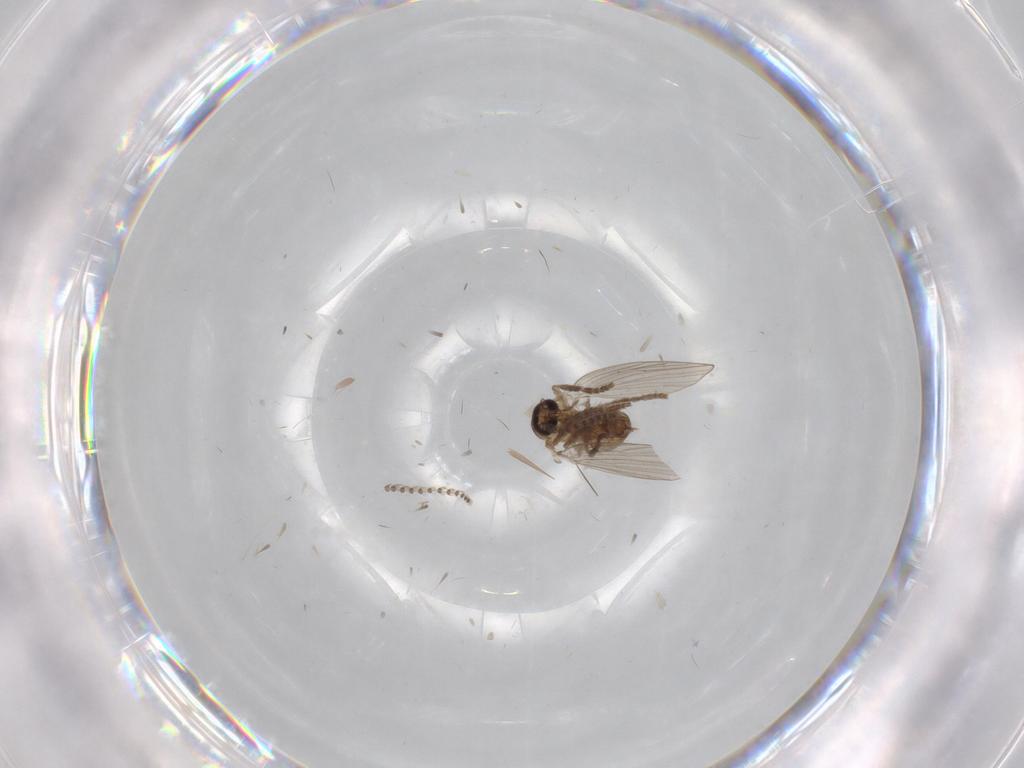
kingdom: Animalia
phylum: Arthropoda
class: Insecta
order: Diptera
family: Psychodidae
